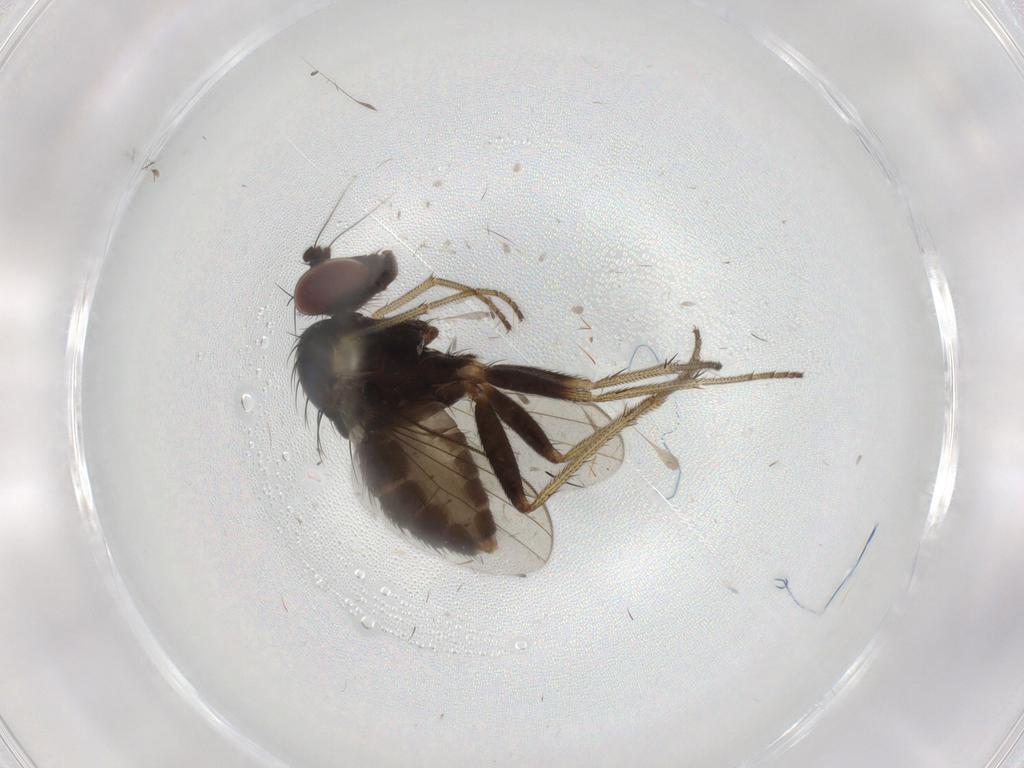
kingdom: Animalia
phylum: Arthropoda
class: Insecta
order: Diptera
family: Dolichopodidae
